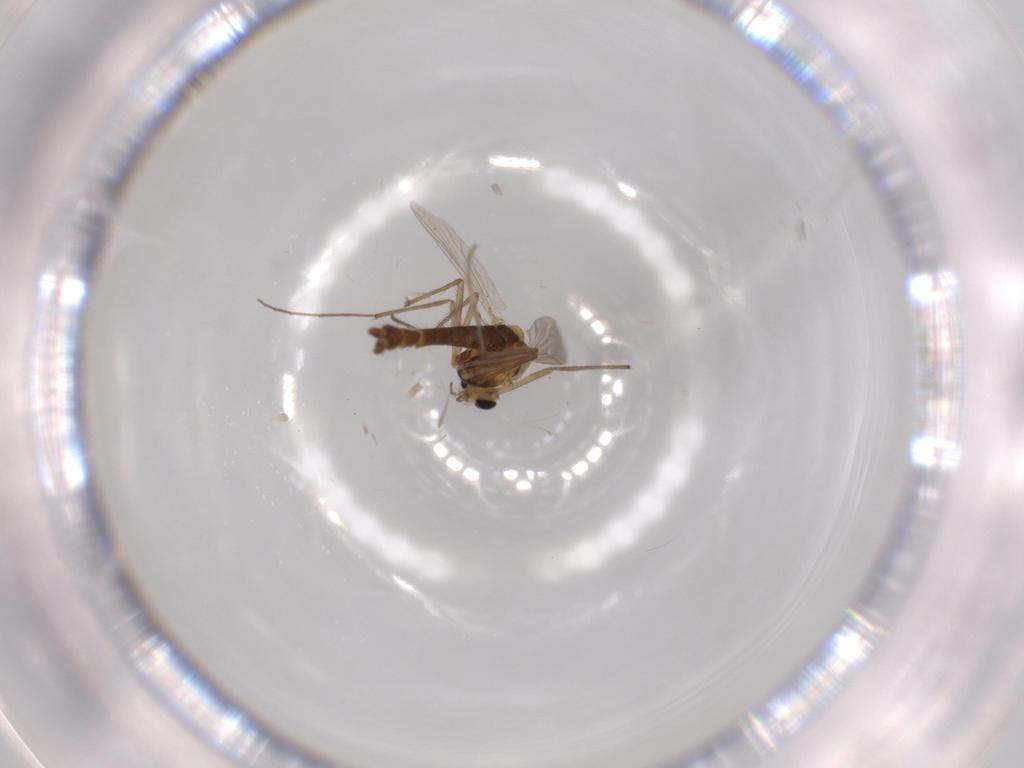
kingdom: Animalia
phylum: Arthropoda
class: Insecta
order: Diptera
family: Chironomidae
